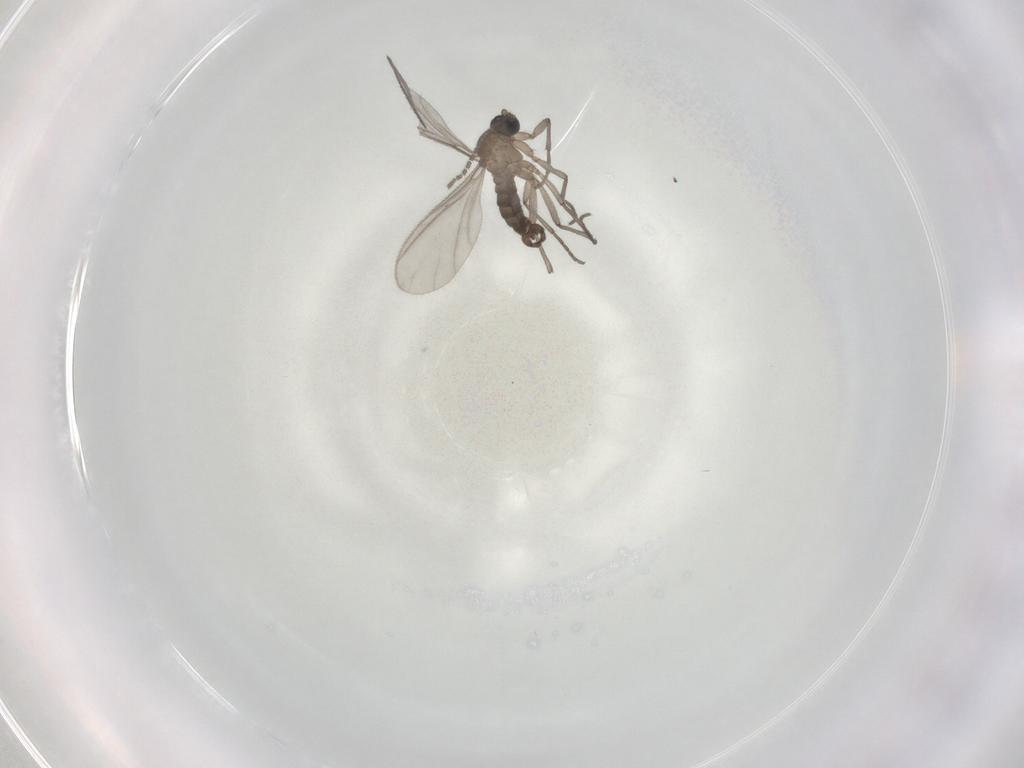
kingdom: Animalia
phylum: Arthropoda
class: Insecta
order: Diptera
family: Sciaridae
